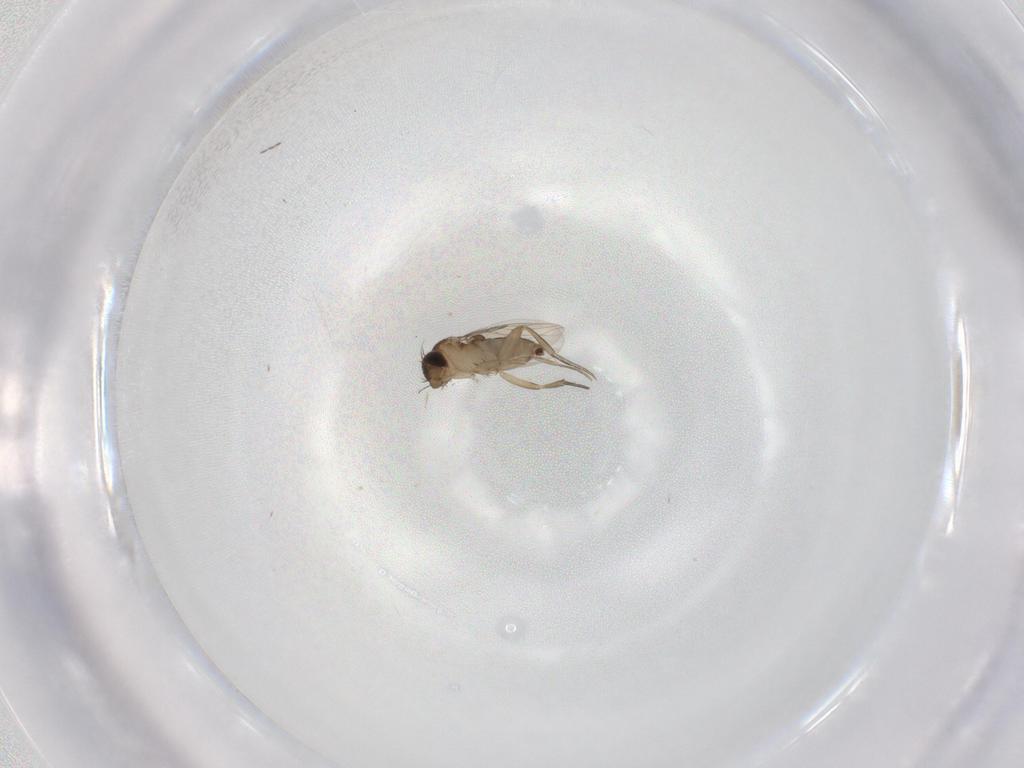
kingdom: Animalia
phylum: Arthropoda
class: Insecta
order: Diptera
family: Phoridae
